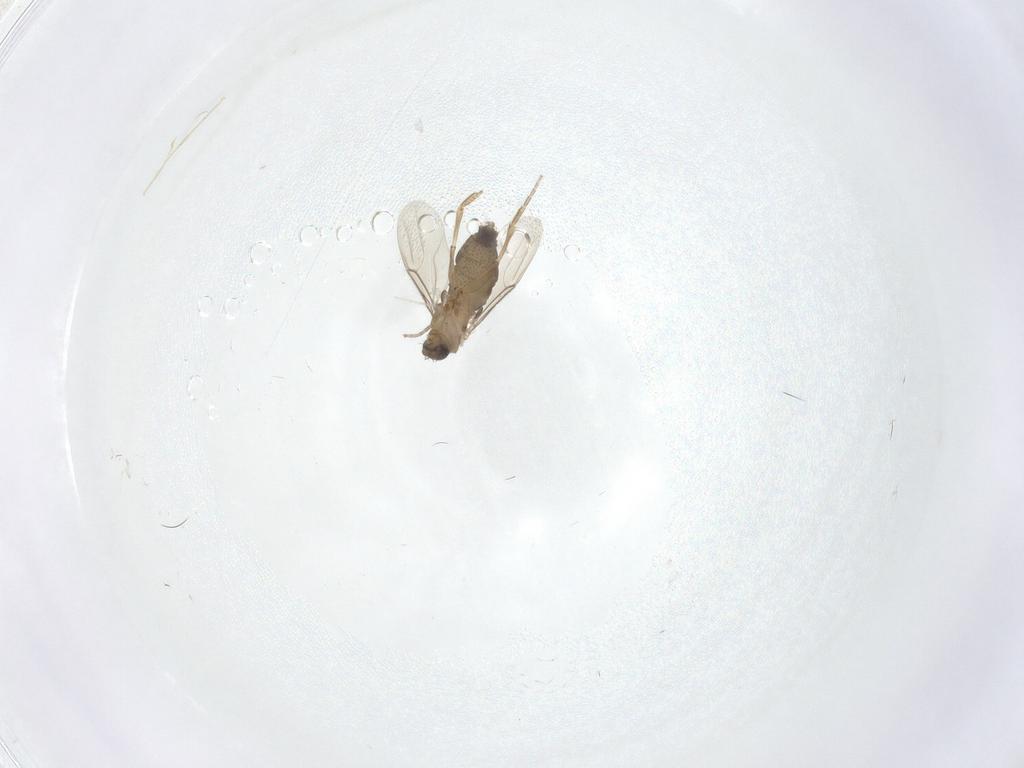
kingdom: Animalia
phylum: Arthropoda
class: Insecta
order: Diptera
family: Phoridae
